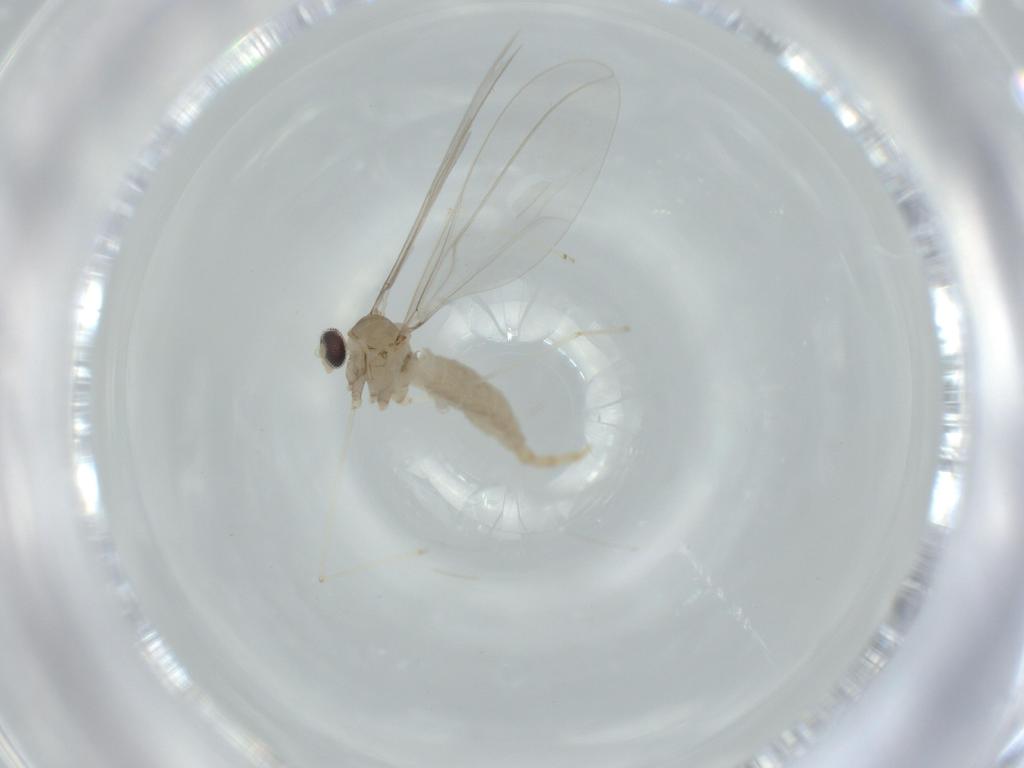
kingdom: Animalia
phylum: Arthropoda
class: Insecta
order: Diptera
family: Cecidomyiidae
